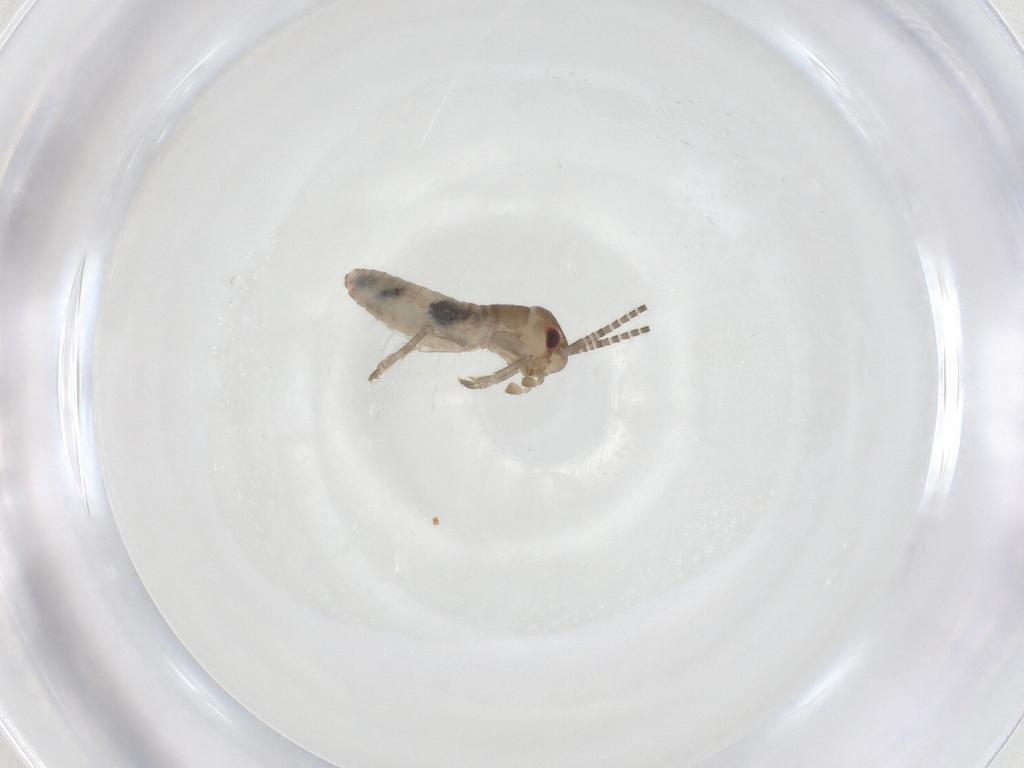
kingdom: Animalia
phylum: Arthropoda
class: Insecta
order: Orthoptera
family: Gryllidae
